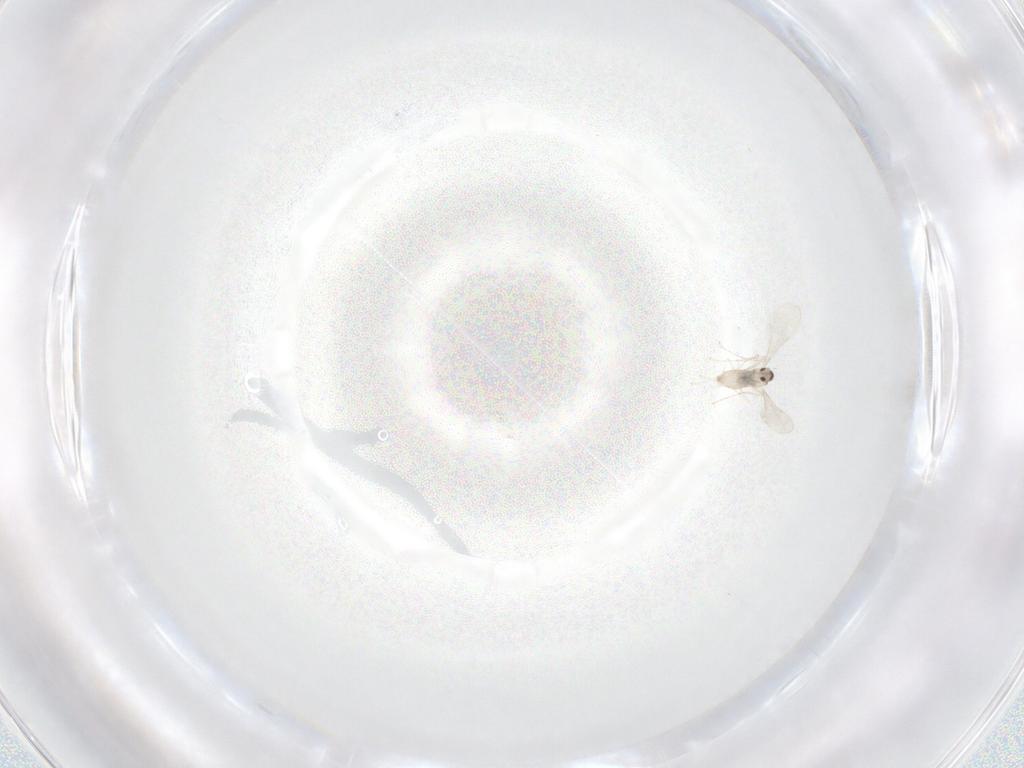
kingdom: Animalia
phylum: Arthropoda
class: Insecta
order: Diptera
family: Cecidomyiidae
